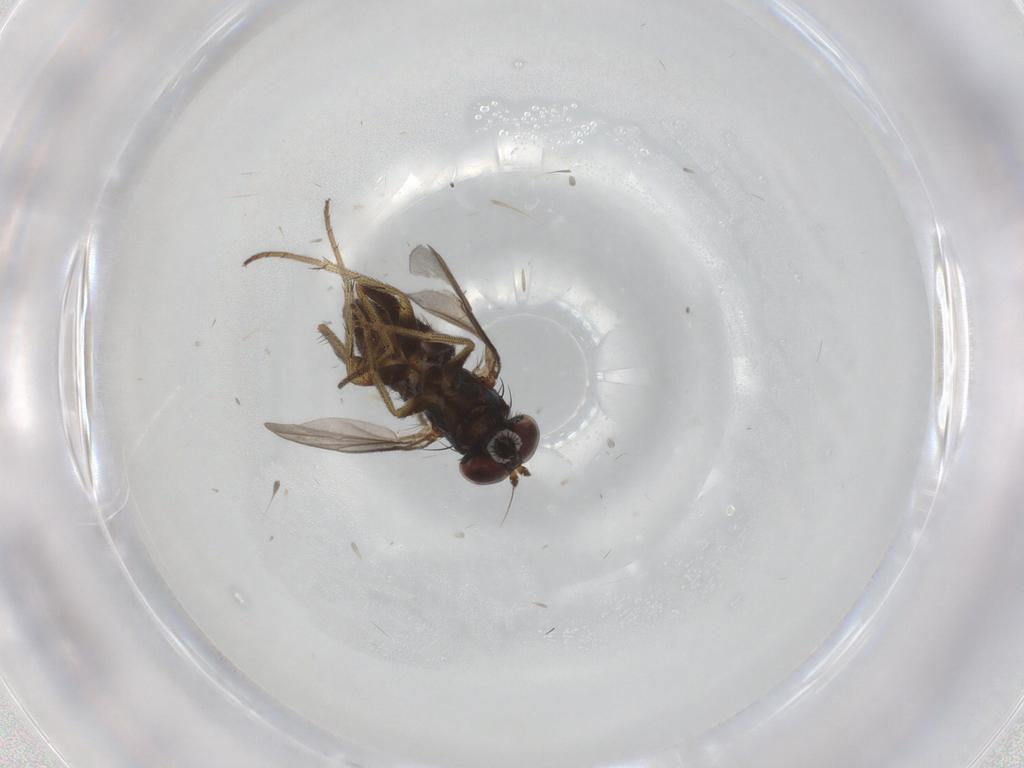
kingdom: Animalia
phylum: Arthropoda
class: Insecta
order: Diptera
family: Dolichopodidae
